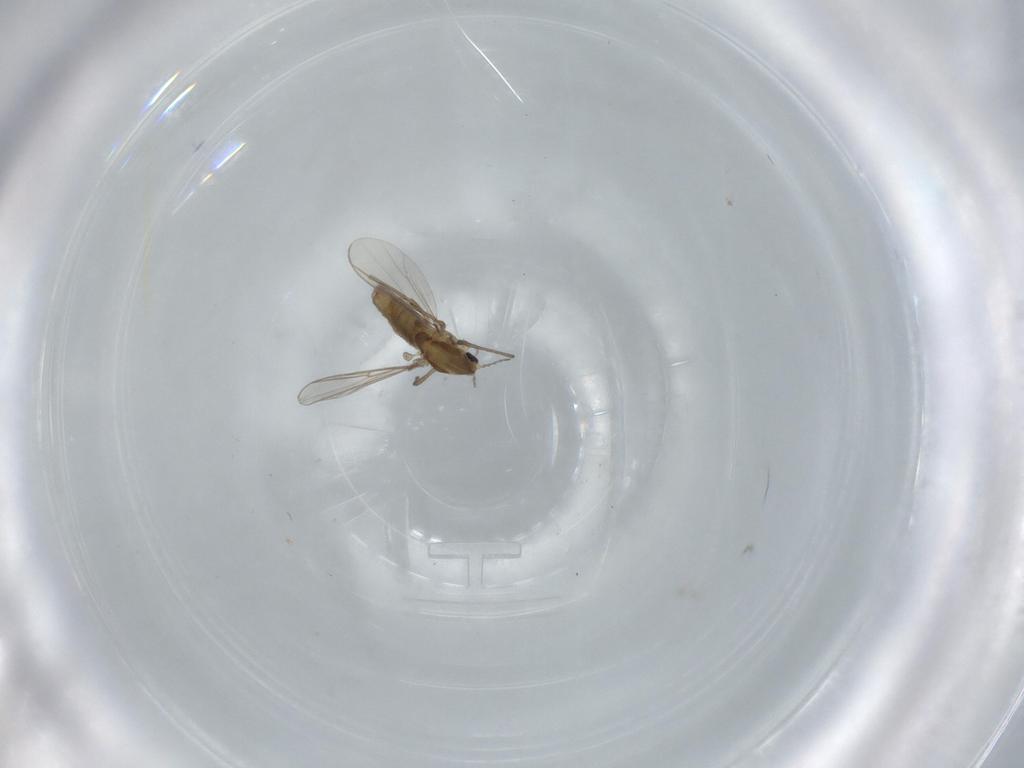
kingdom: Animalia
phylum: Arthropoda
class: Insecta
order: Diptera
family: Chironomidae
